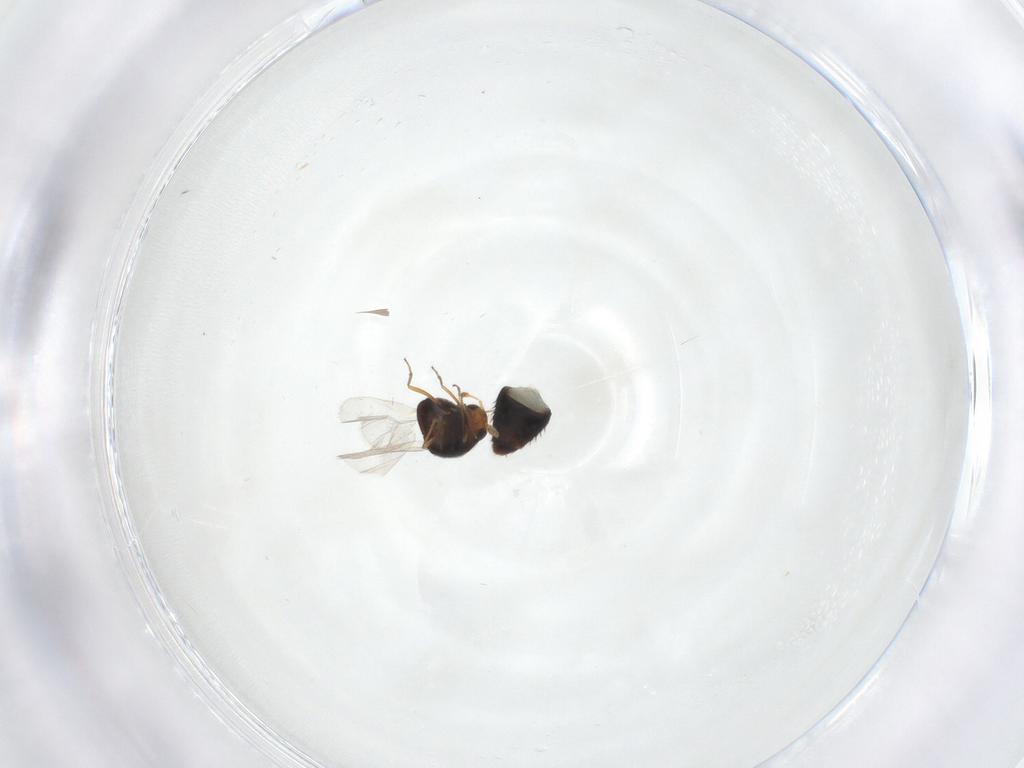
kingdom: Animalia
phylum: Arthropoda
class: Insecta
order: Coleoptera
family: Staphylinidae
